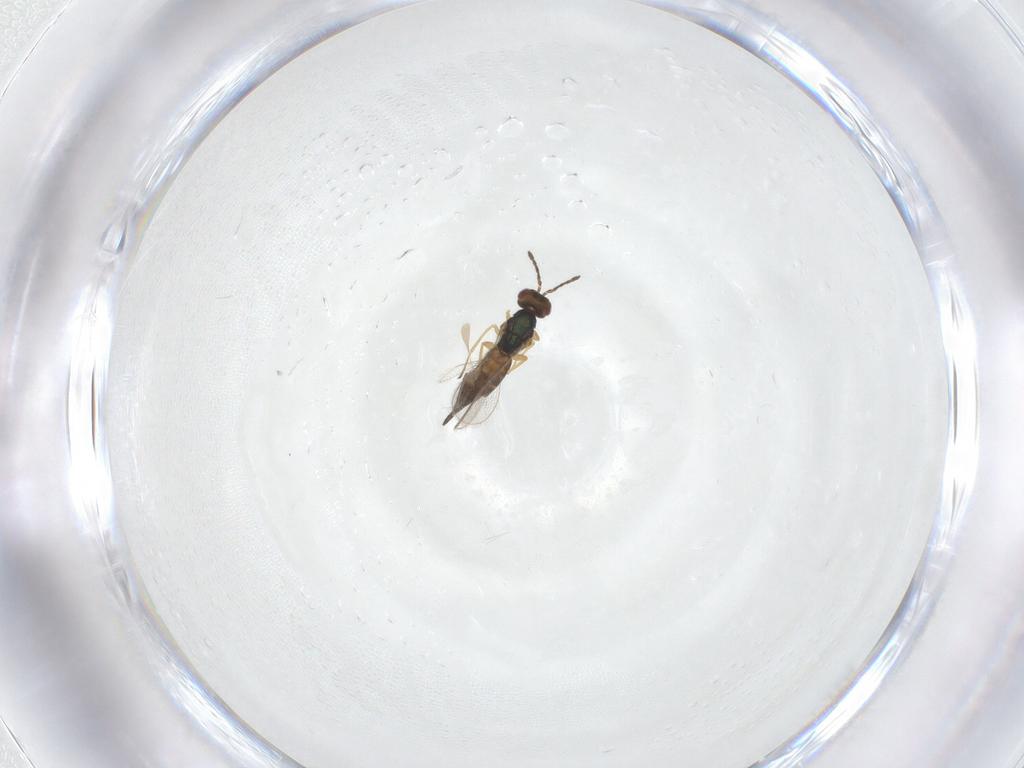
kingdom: Animalia
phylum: Arthropoda
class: Insecta
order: Hymenoptera
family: Eulophidae
